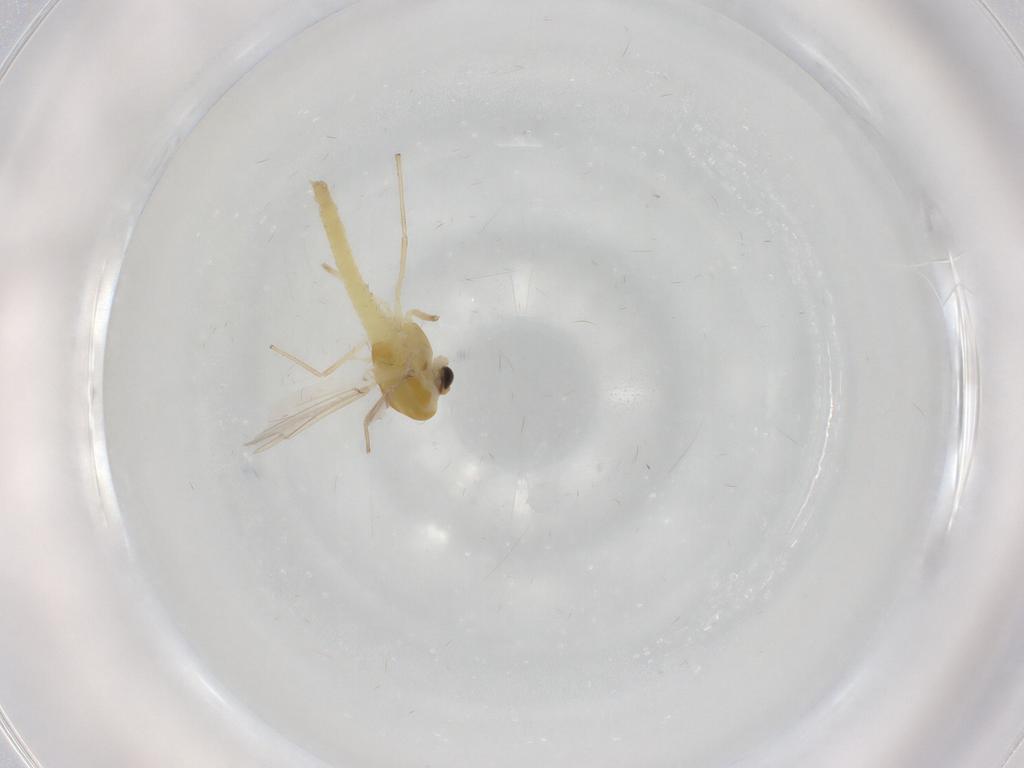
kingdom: Animalia
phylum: Arthropoda
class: Insecta
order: Diptera
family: Chironomidae
